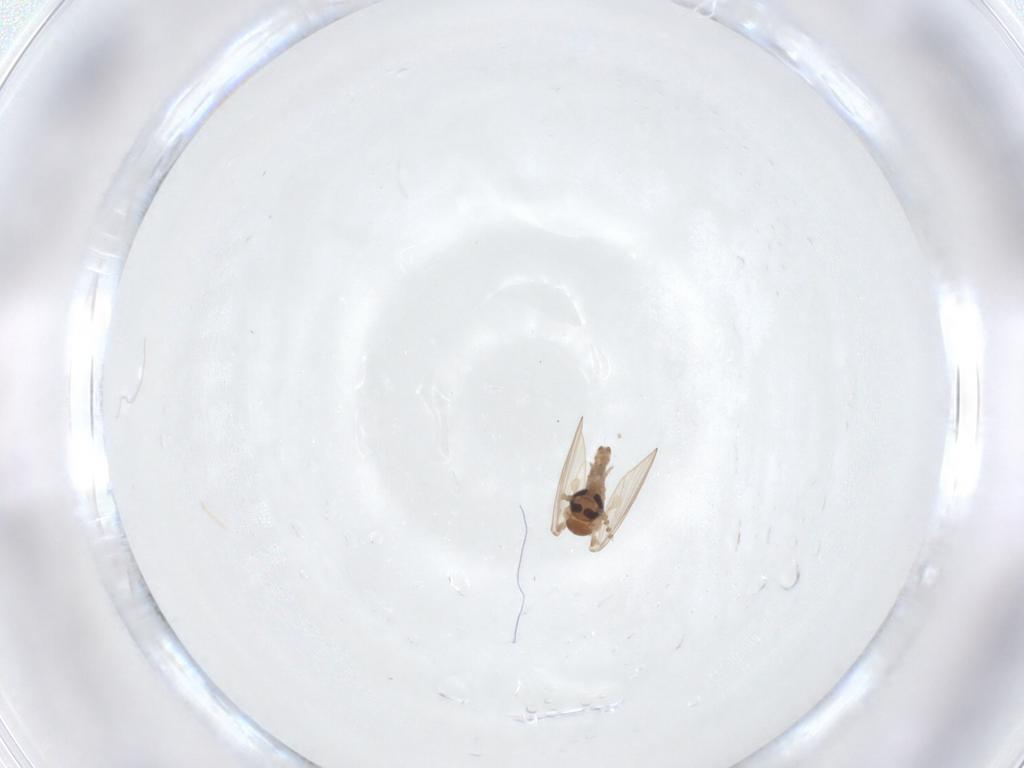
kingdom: Animalia
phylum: Arthropoda
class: Insecta
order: Diptera
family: Psychodidae
